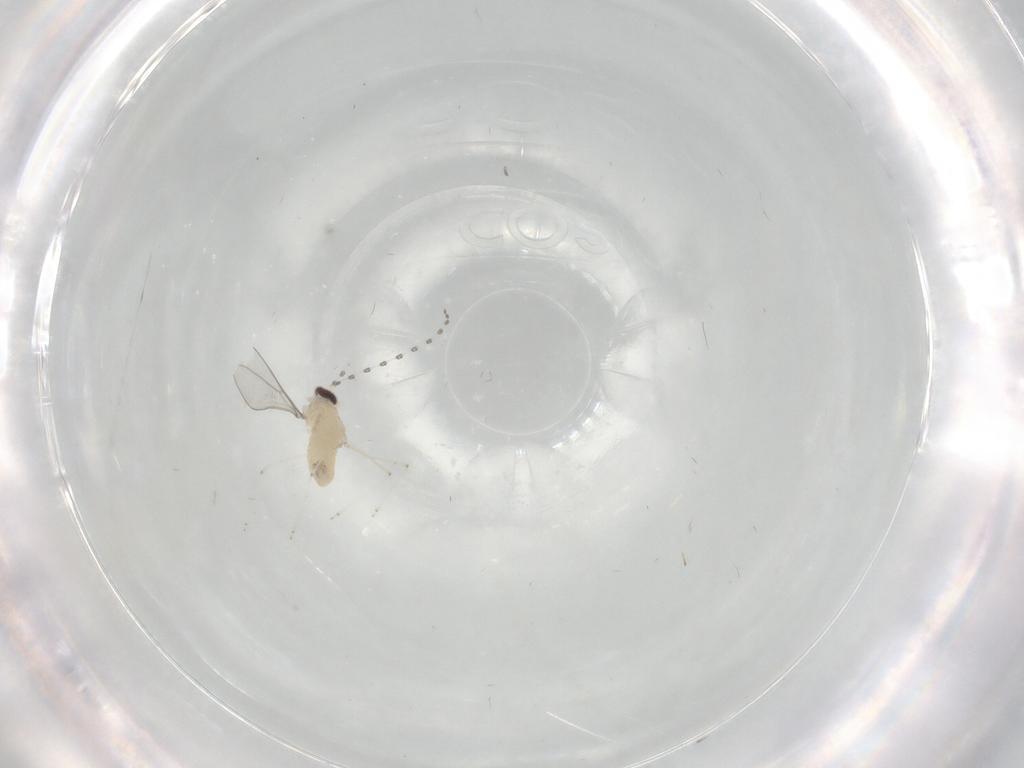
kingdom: Animalia
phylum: Arthropoda
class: Insecta
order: Diptera
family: Cecidomyiidae
